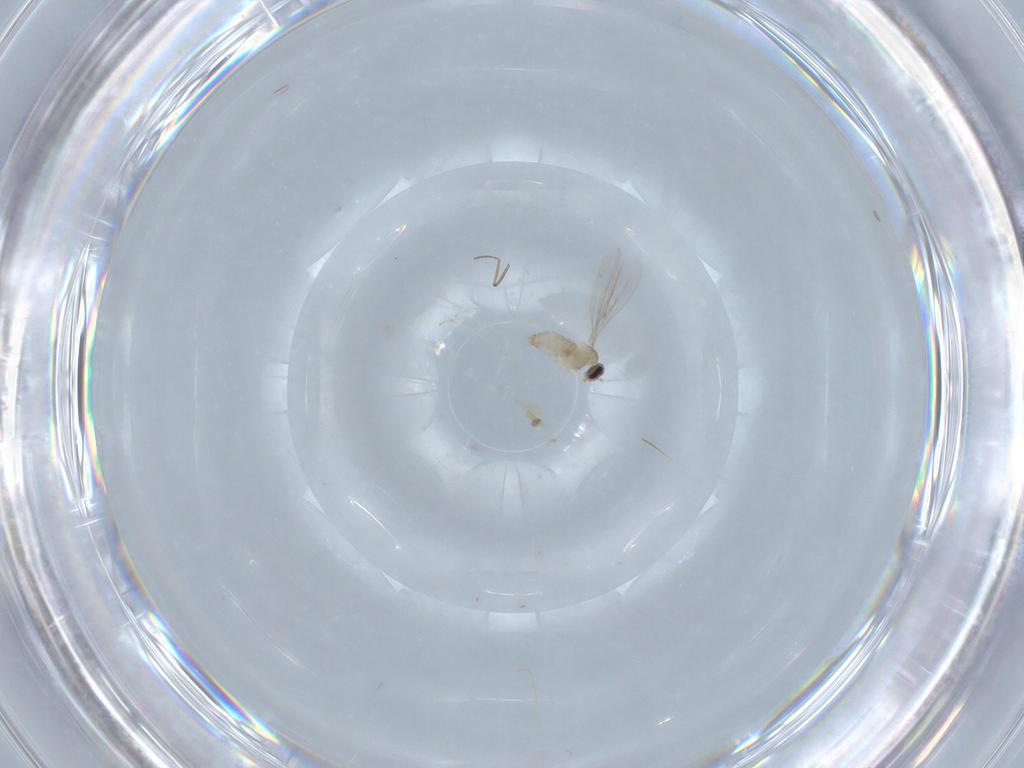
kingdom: Animalia
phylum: Arthropoda
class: Insecta
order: Diptera
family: Cecidomyiidae
